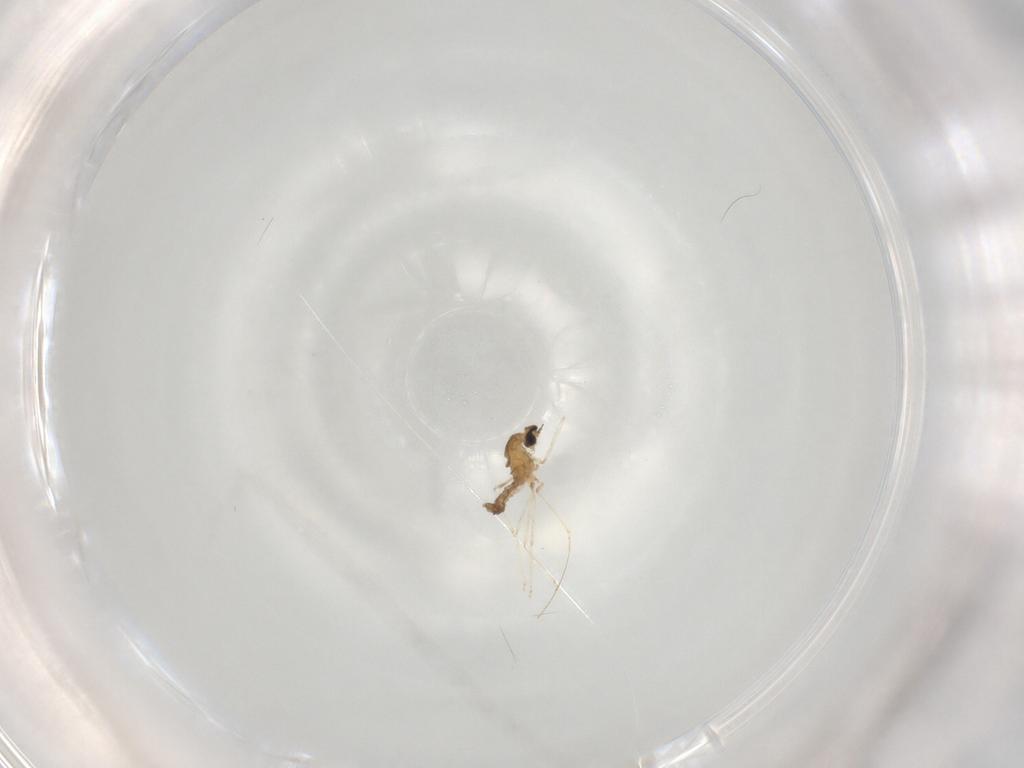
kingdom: Animalia
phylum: Arthropoda
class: Insecta
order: Diptera
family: Cecidomyiidae
